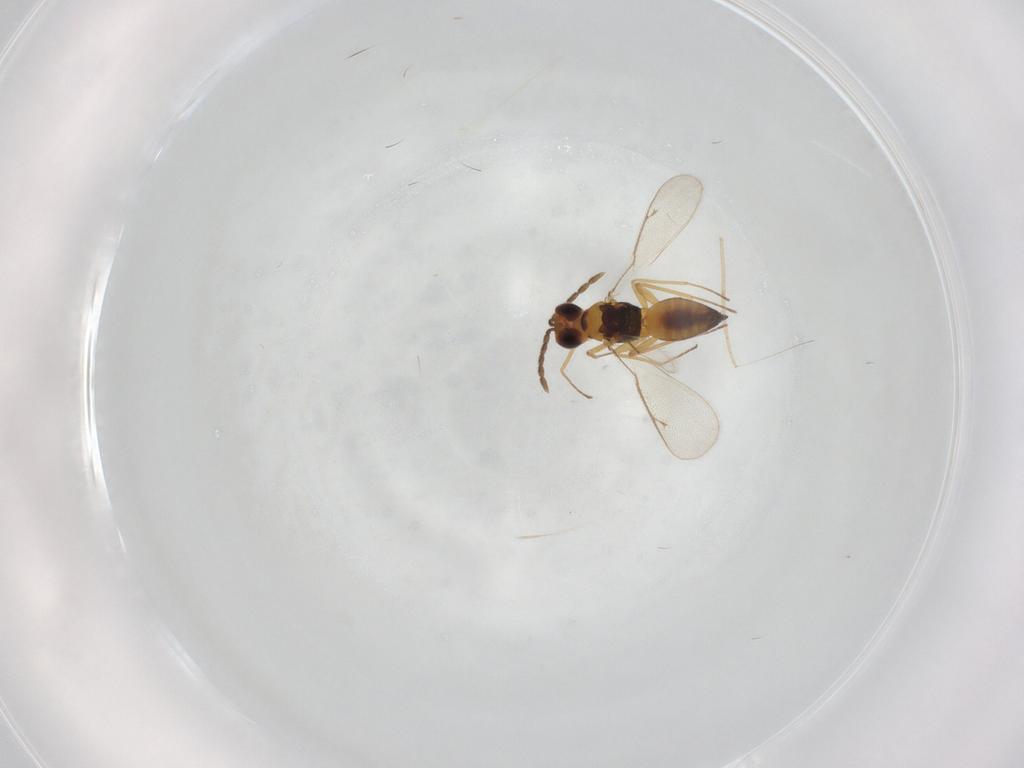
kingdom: Animalia
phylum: Arthropoda
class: Insecta
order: Hymenoptera
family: Eulophidae
